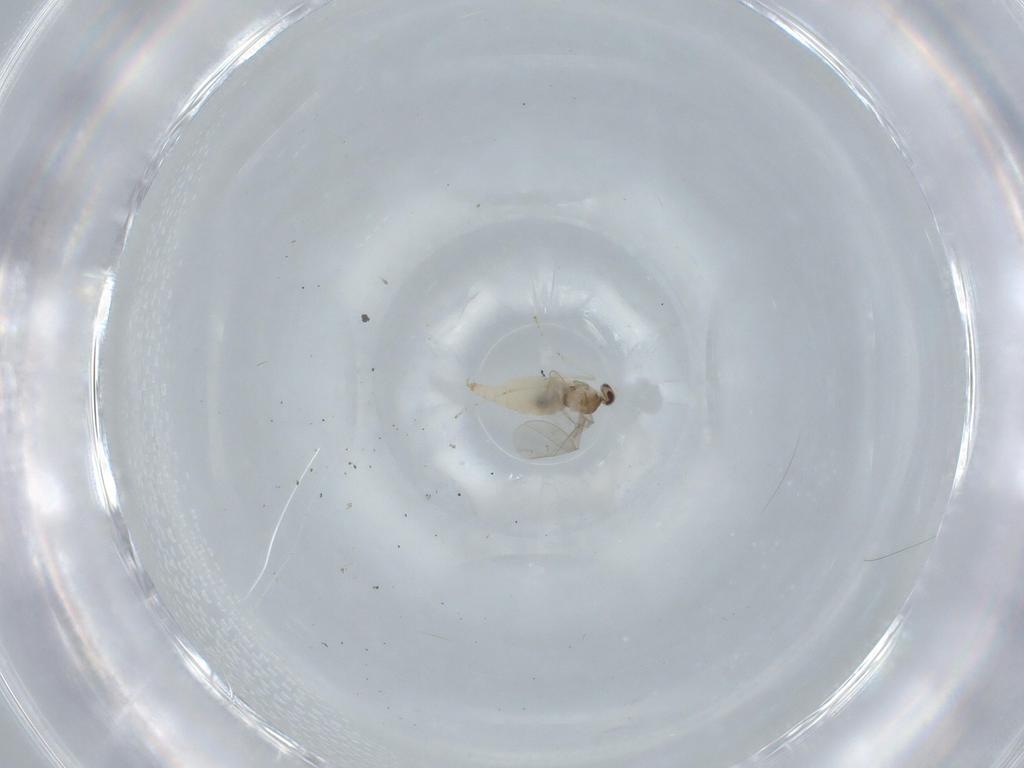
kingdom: Animalia
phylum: Arthropoda
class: Insecta
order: Diptera
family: Cecidomyiidae
